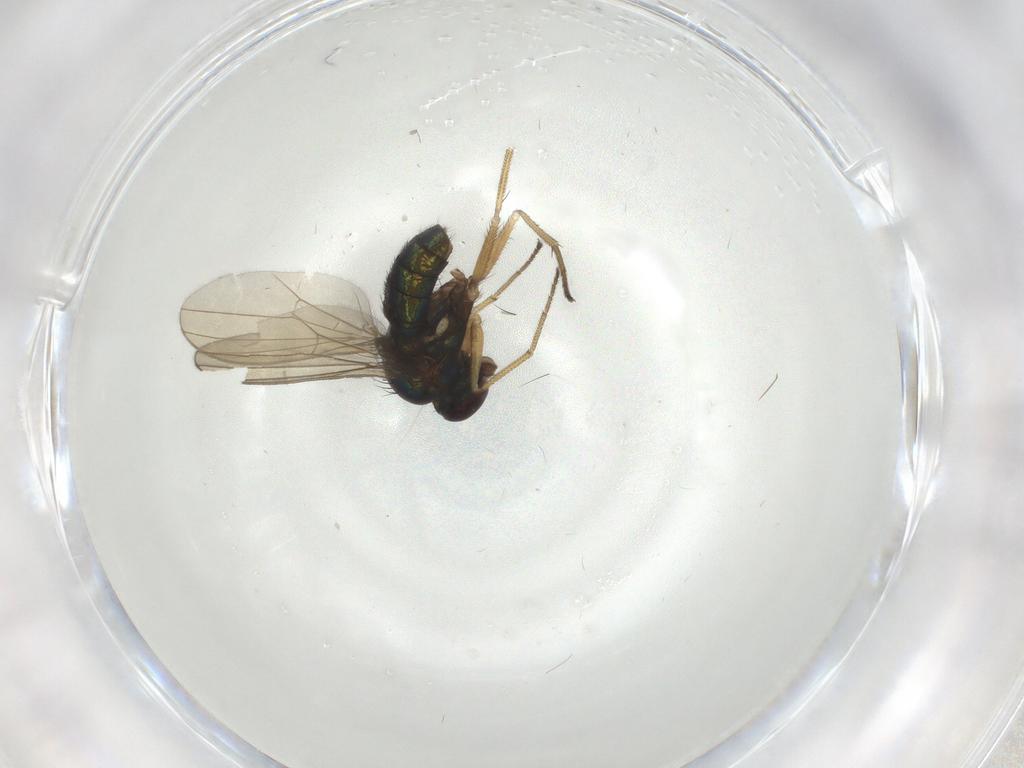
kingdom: Animalia
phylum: Arthropoda
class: Insecta
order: Diptera
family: Dolichopodidae
